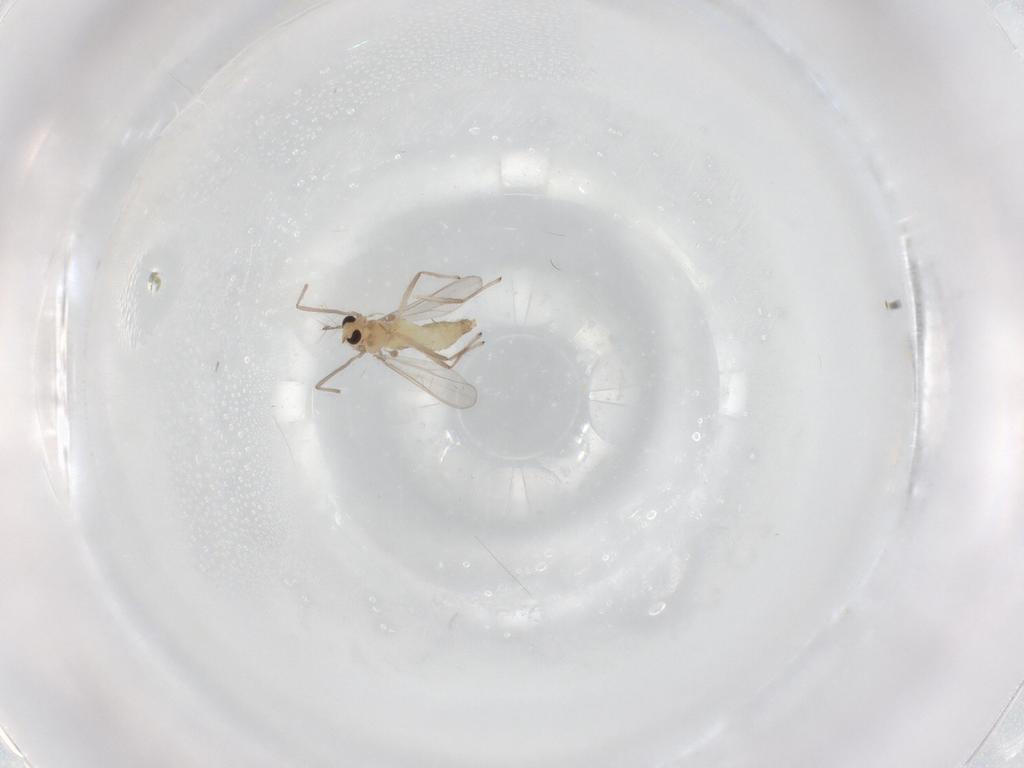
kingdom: Animalia
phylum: Arthropoda
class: Insecta
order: Diptera
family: Chironomidae
